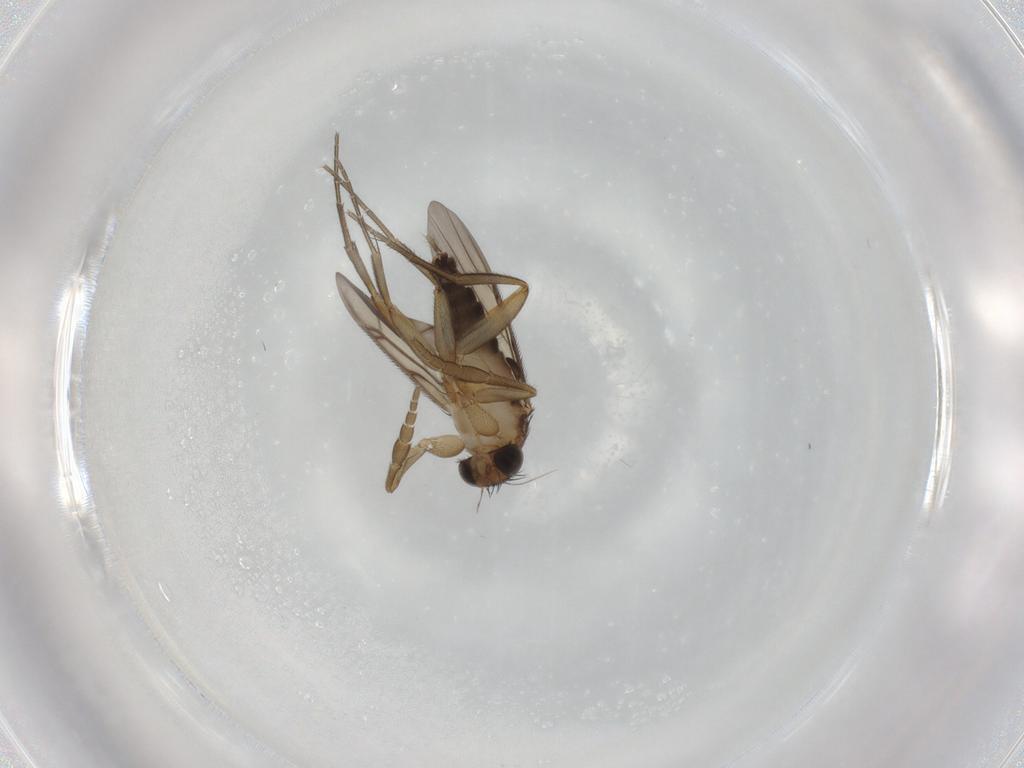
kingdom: Animalia
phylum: Arthropoda
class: Insecta
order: Diptera
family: Phoridae
